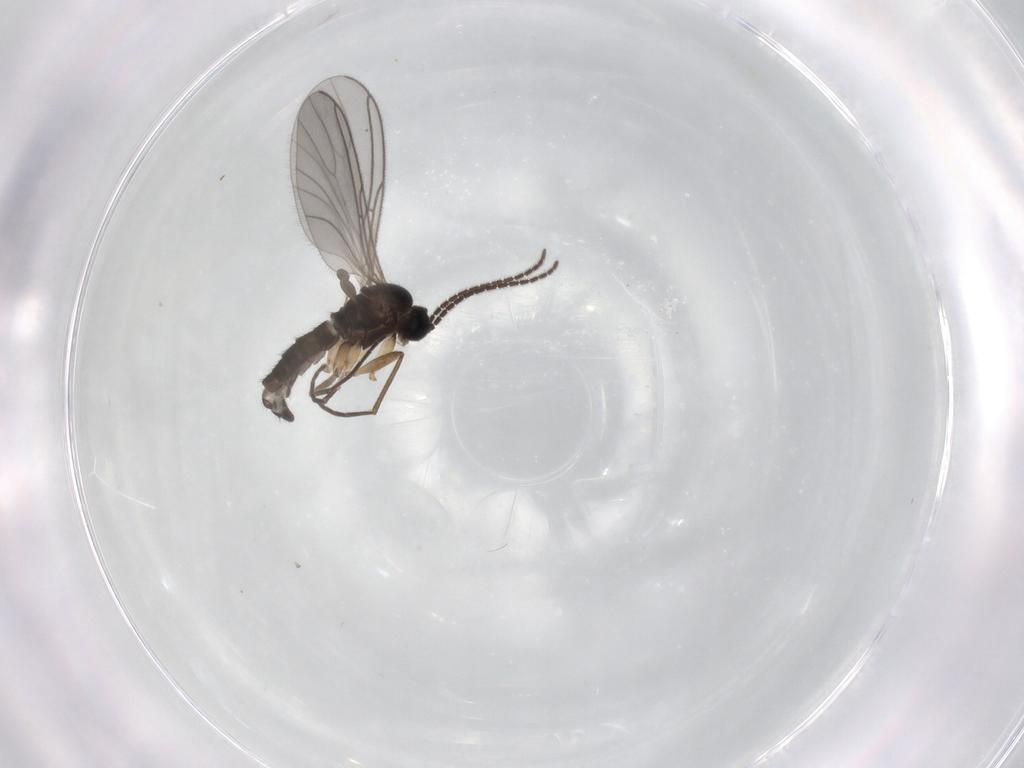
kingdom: Animalia
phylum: Arthropoda
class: Insecta
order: Diptera
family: Sciaridae
